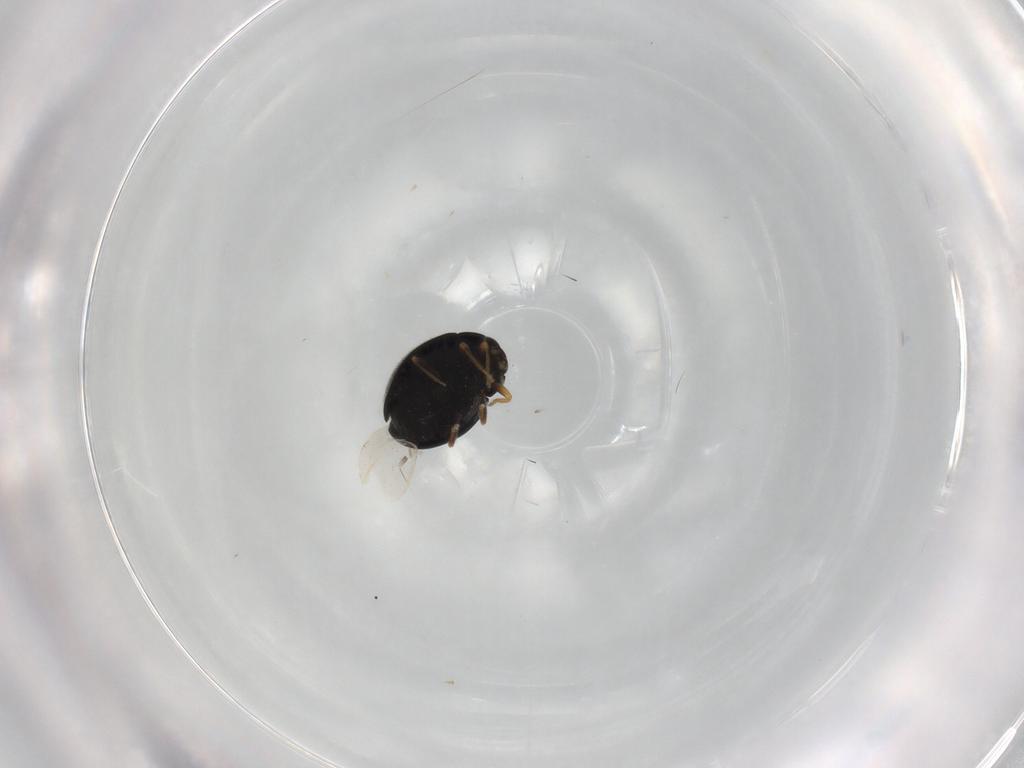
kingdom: Animalia
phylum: Arthropoda
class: Insecta
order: Coleoptera
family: Coccinellidae
